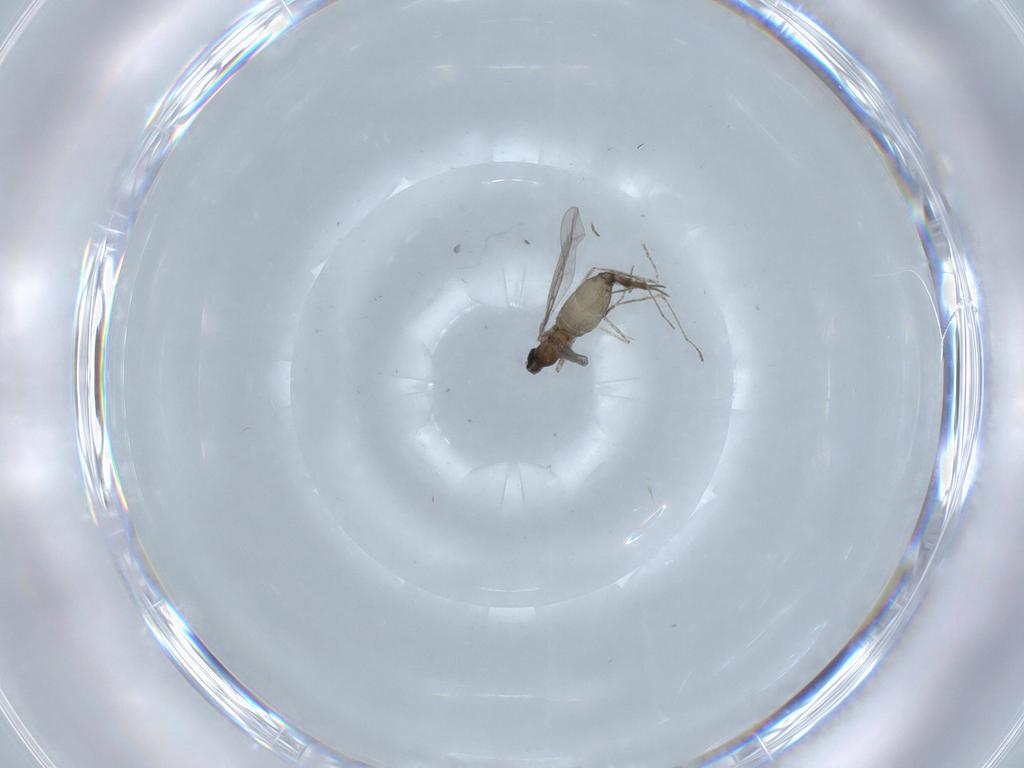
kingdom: Animalia
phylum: Arthropoda
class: Insecta
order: Diptera
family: Cecidomyiidae
